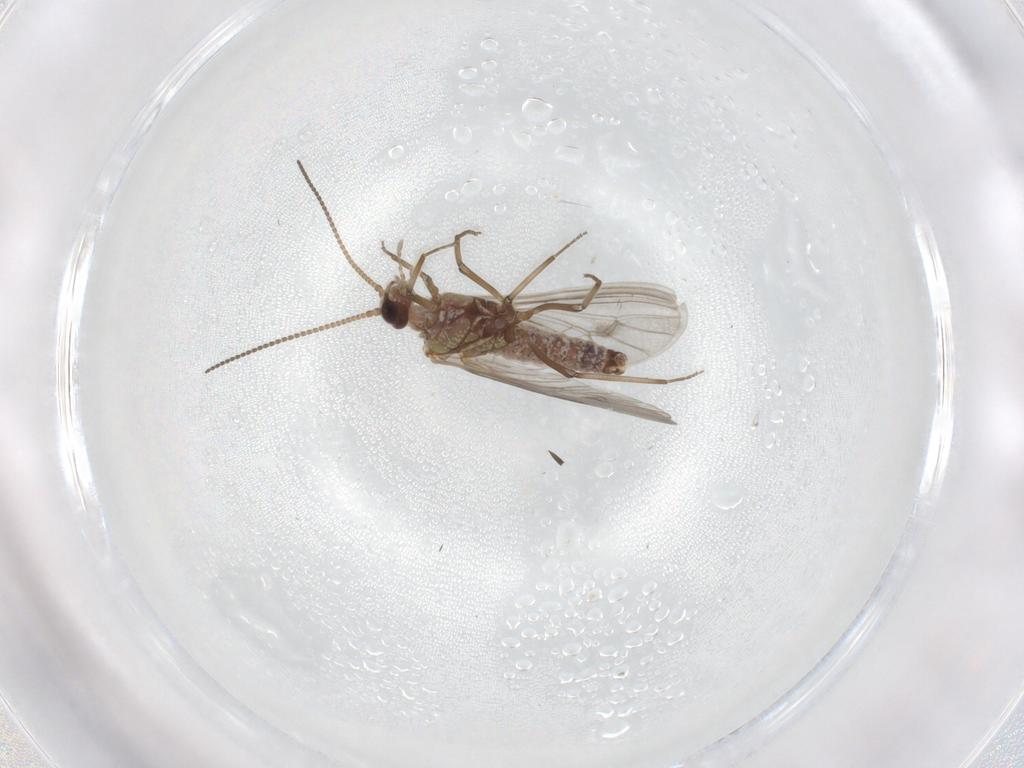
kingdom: Animalia
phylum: Arthropoda
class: Insecta
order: Neuroptera
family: Coniopterygidae
